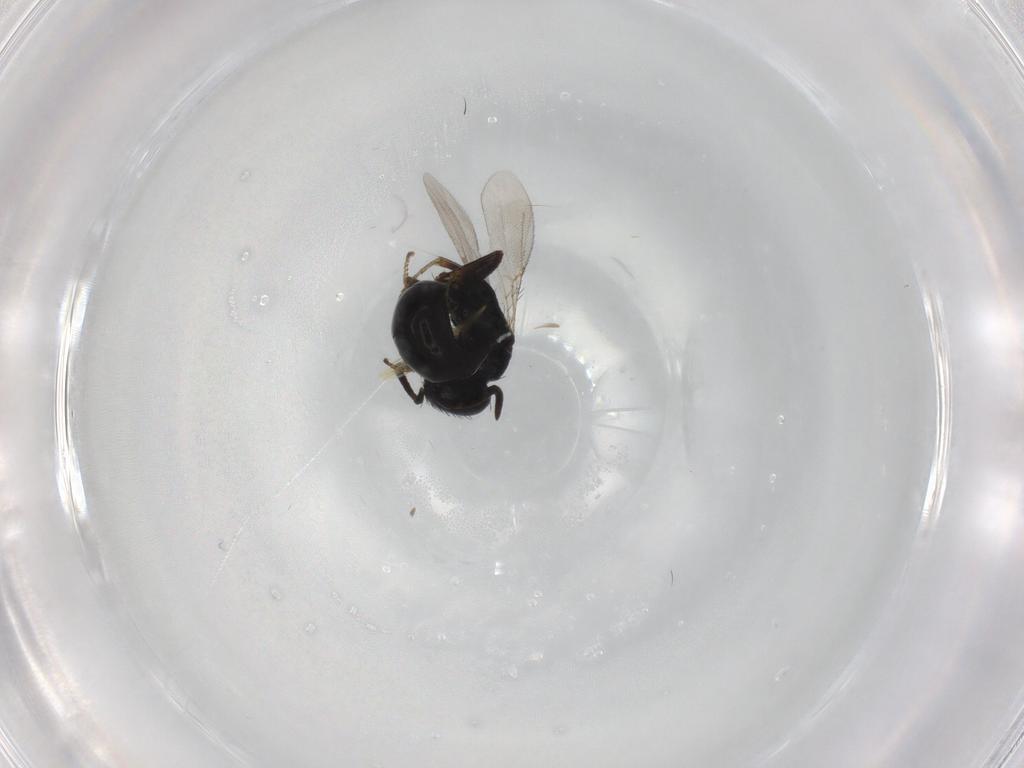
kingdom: Animalia
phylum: Arthropoda
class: Insecta
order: Hymenoptera
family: Bethylidae
